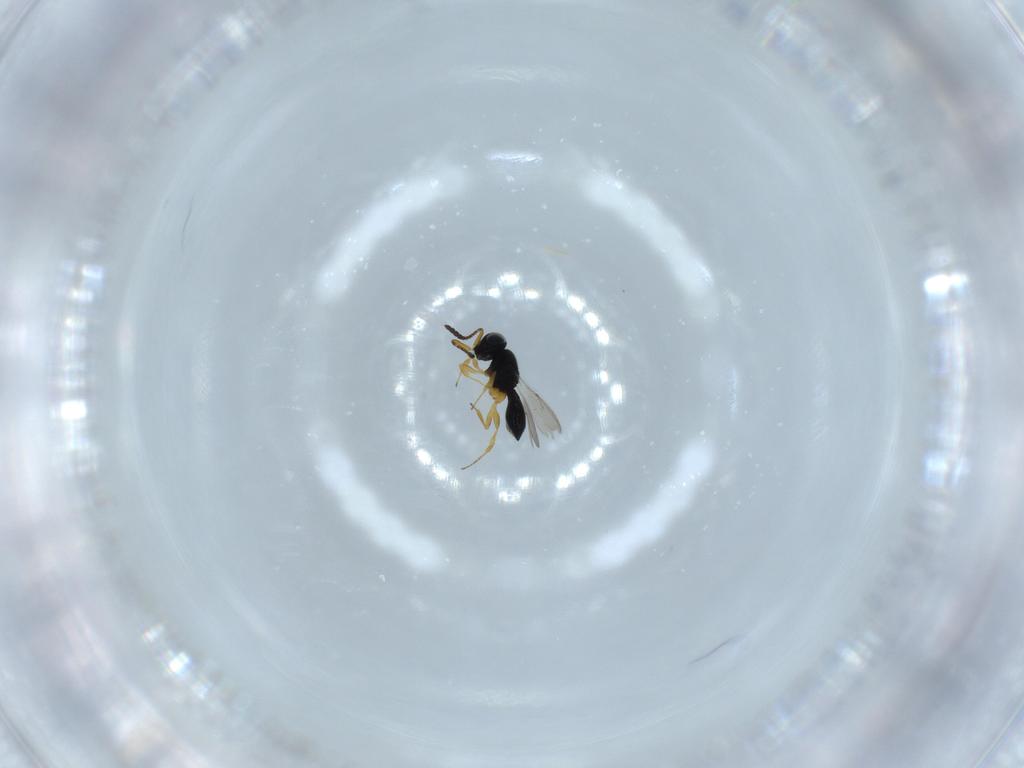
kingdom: Animalia
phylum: Arthropoda
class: Insecta
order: Hymenoptera
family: Scelionidae
